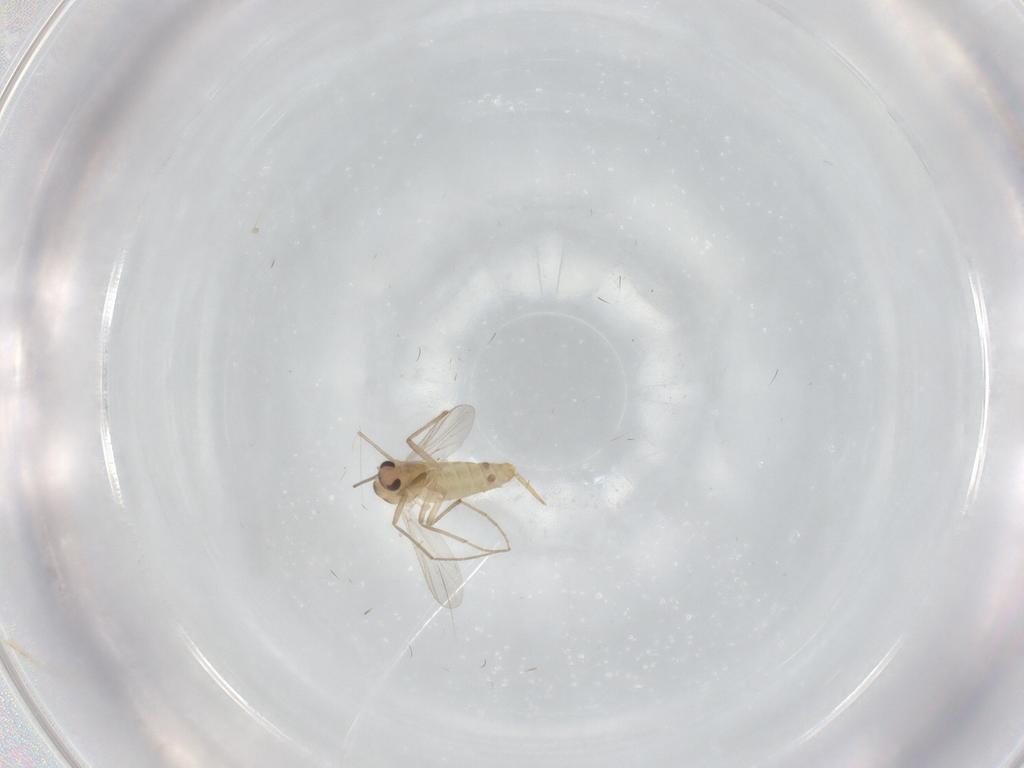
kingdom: Animalia
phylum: Arthropoda
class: Insecta
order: Diptera
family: Chironomidae
